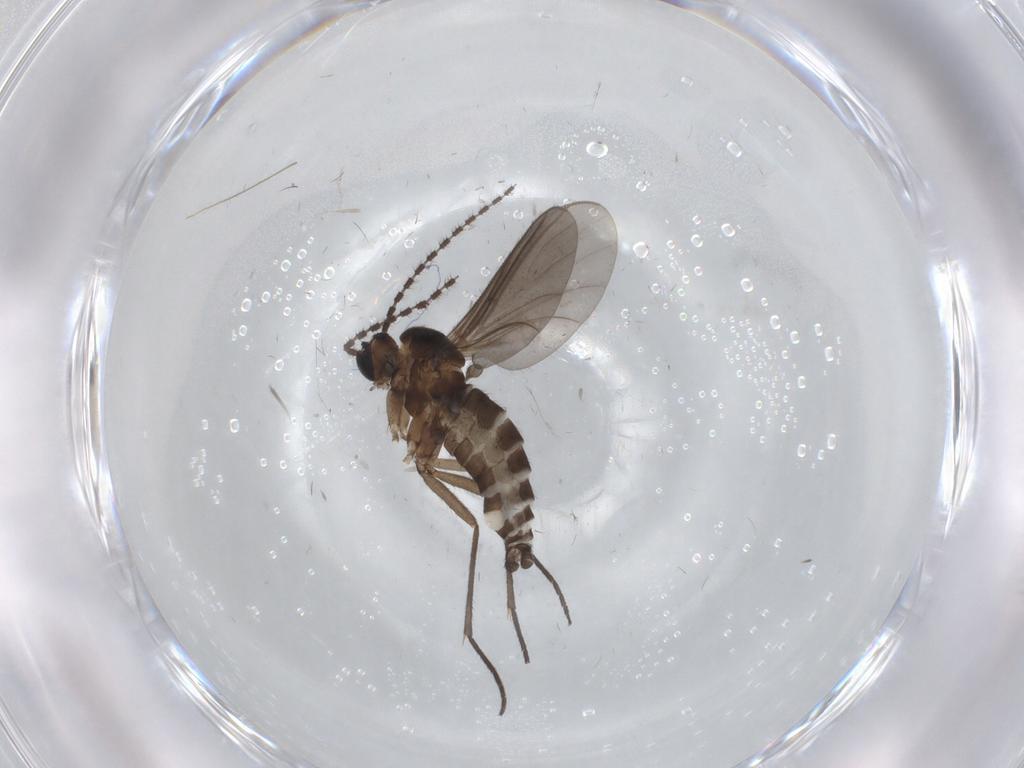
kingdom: Animalia
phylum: Arthropoda
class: Insecta
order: Diptera
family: Sciaridae
